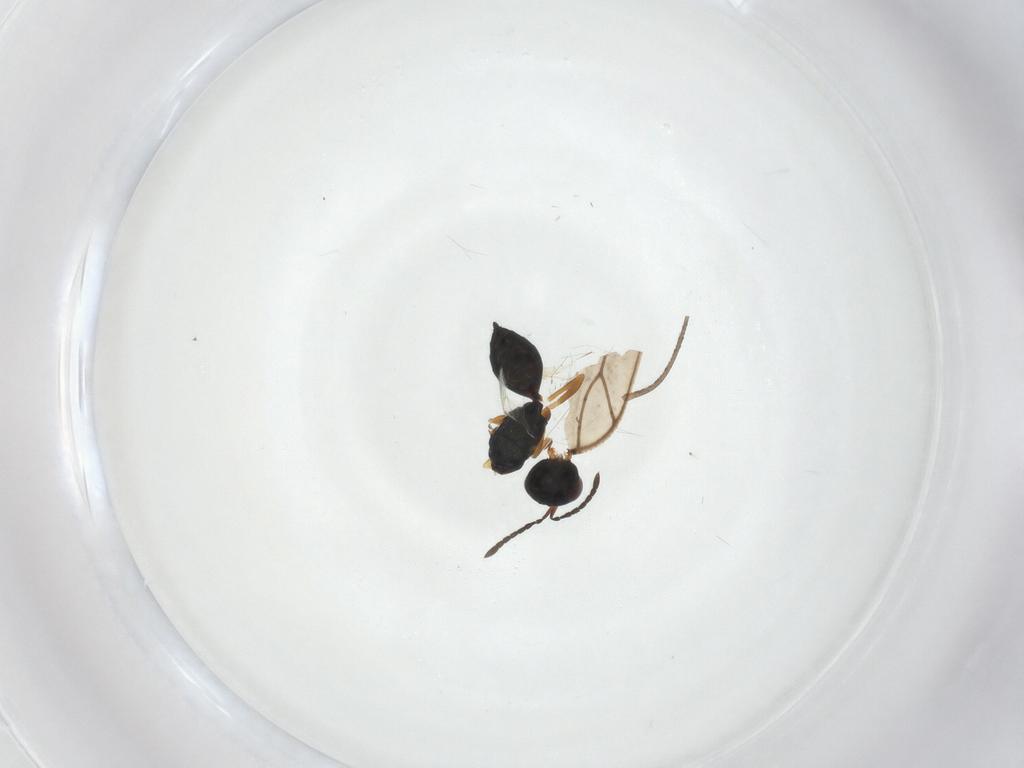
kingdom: Animalia
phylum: Arthropoda
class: Insecta
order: Hymenoptera
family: Pteromalidae
